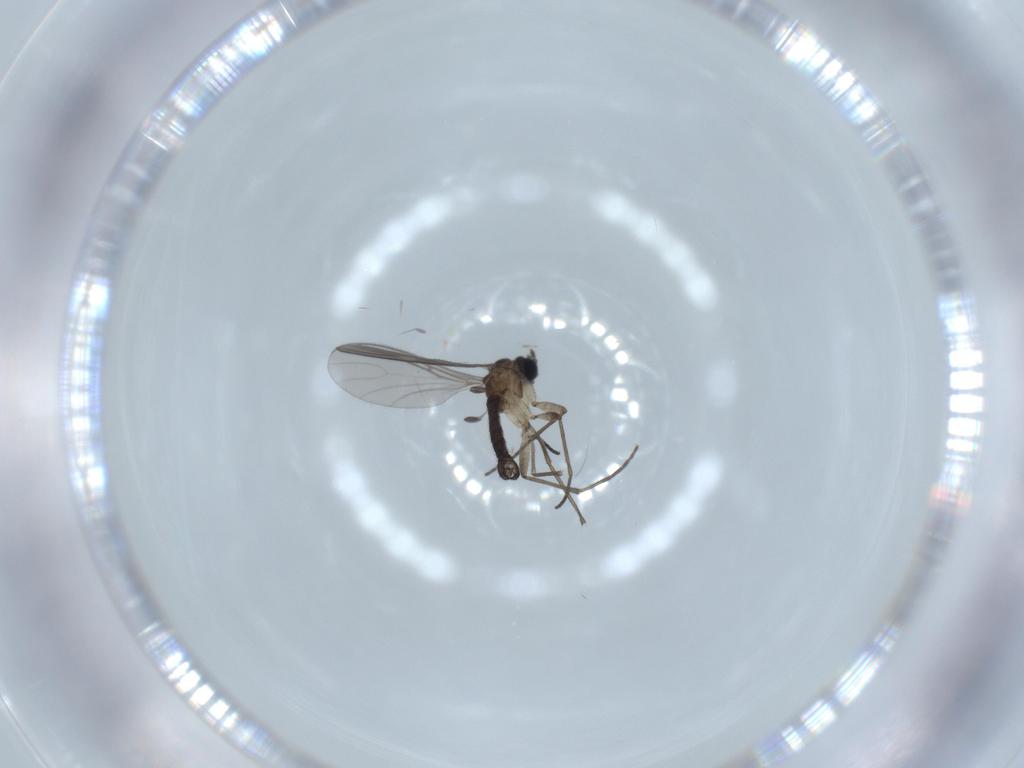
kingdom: Animalia
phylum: Arthropoda
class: Insecta
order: Diptera
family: Sciaridae
